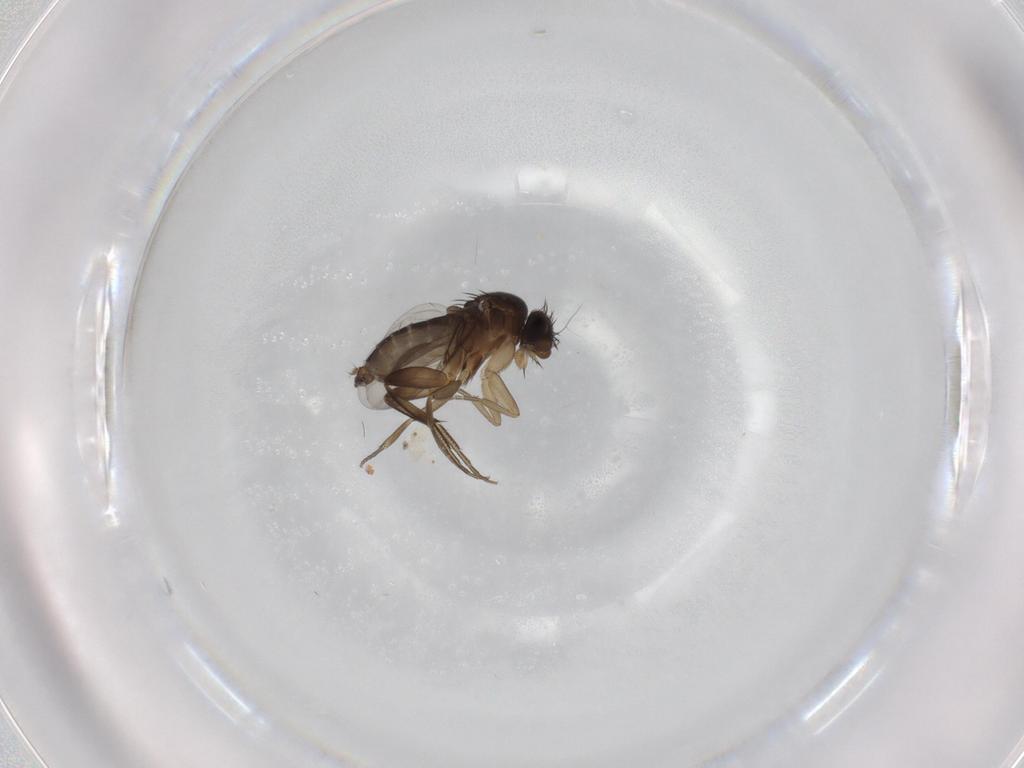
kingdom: Animalia
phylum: Arthropoda
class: Insecta
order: Diptera
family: Phoridae
